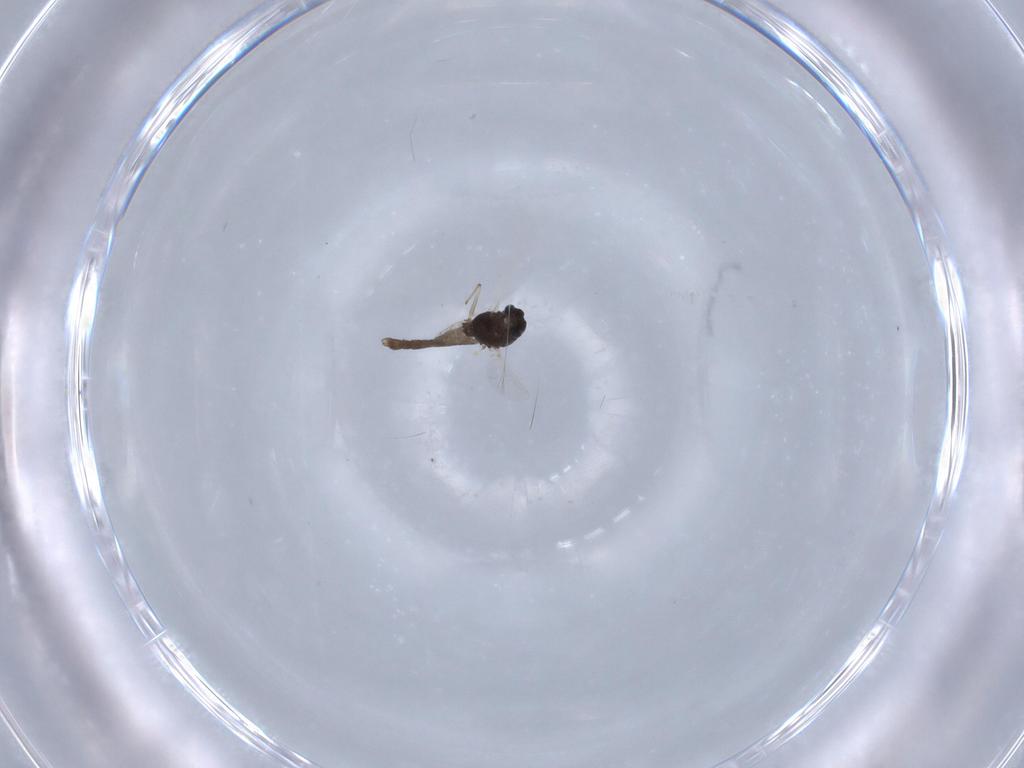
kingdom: Animalia
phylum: Arthropoda
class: Insecta
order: Diptera
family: Chironomidae
